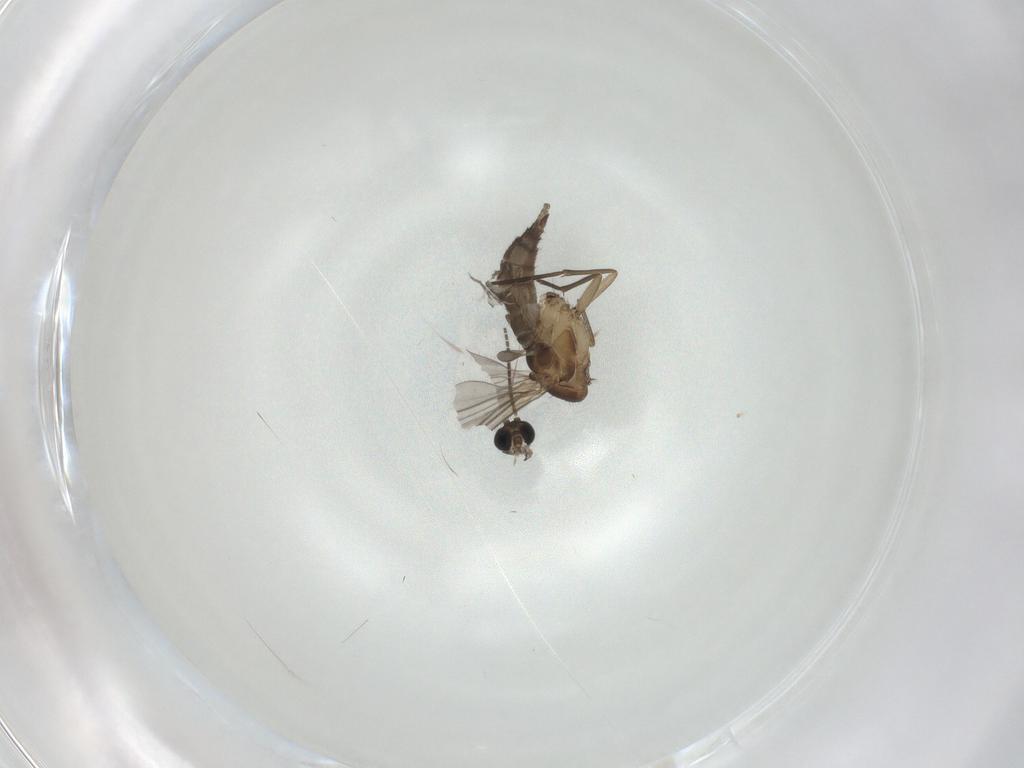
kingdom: Animalia
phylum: Arthropoda
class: Insecta
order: Diptera
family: Sciaridae
